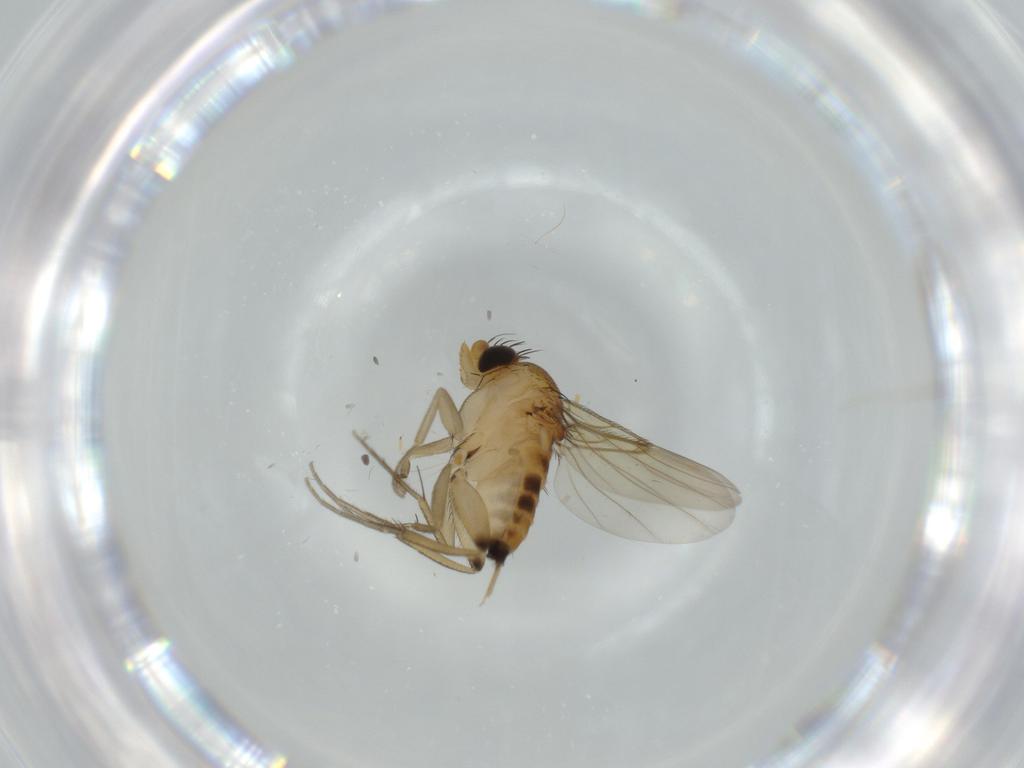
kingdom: Animalia
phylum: Arthropoda
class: Insecta
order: Diptera
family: Phoridae
